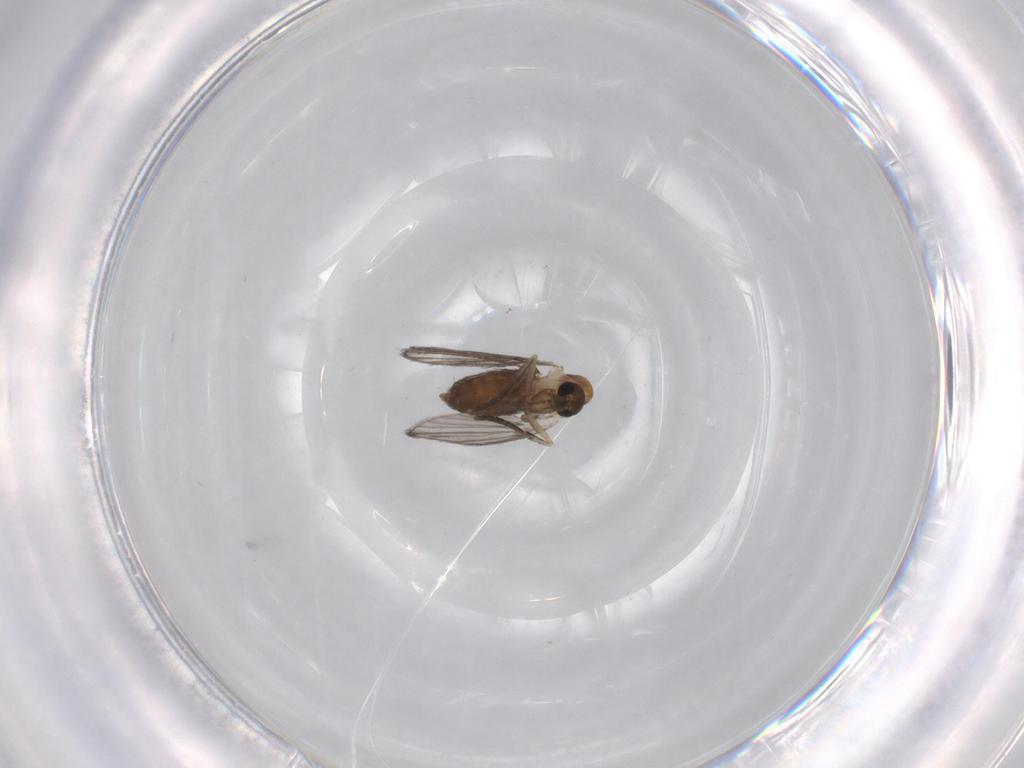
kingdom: Animalia
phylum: Arthropoda
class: Insecta
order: Diptera
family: Psychodidae
